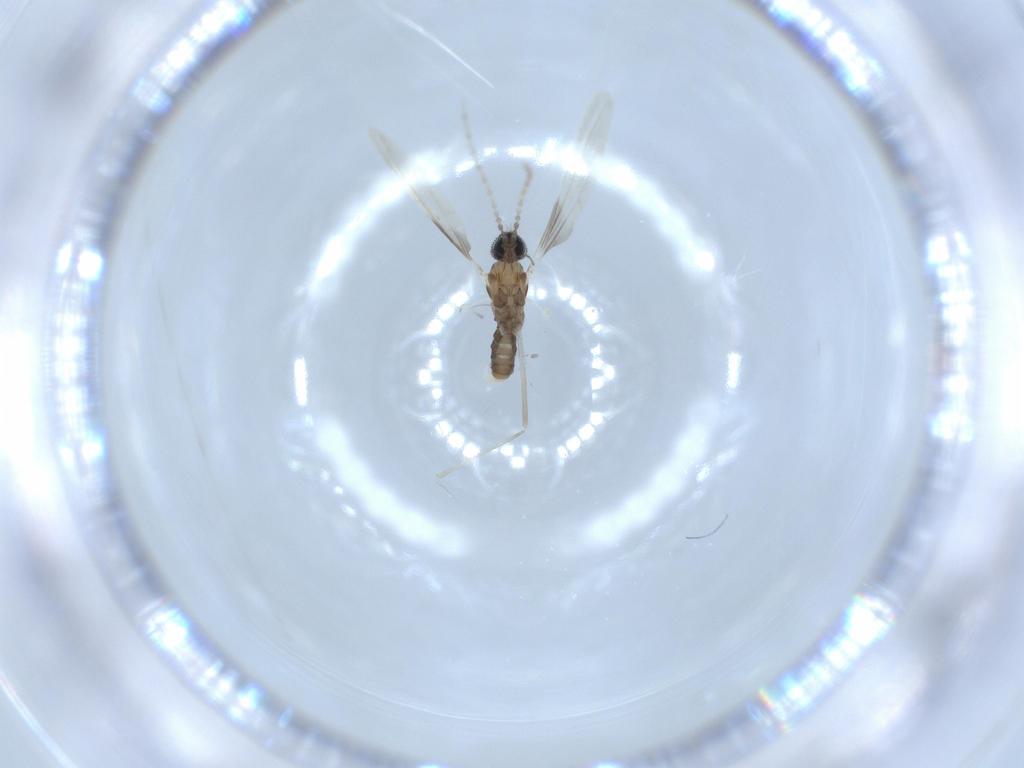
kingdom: Animalia
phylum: Arthropoda
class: Insecta
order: Diptera
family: Cecidomyiidae
